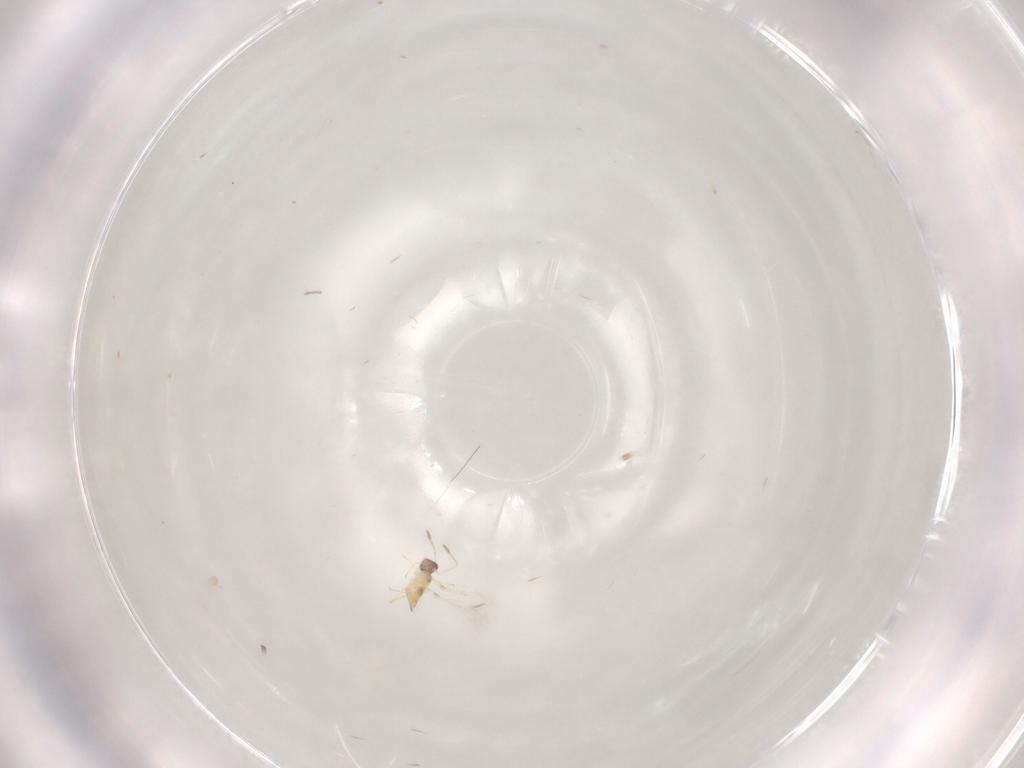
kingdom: Animalia
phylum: Arthropoda
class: Insecta
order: Hymenoptera
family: Mymaridae
